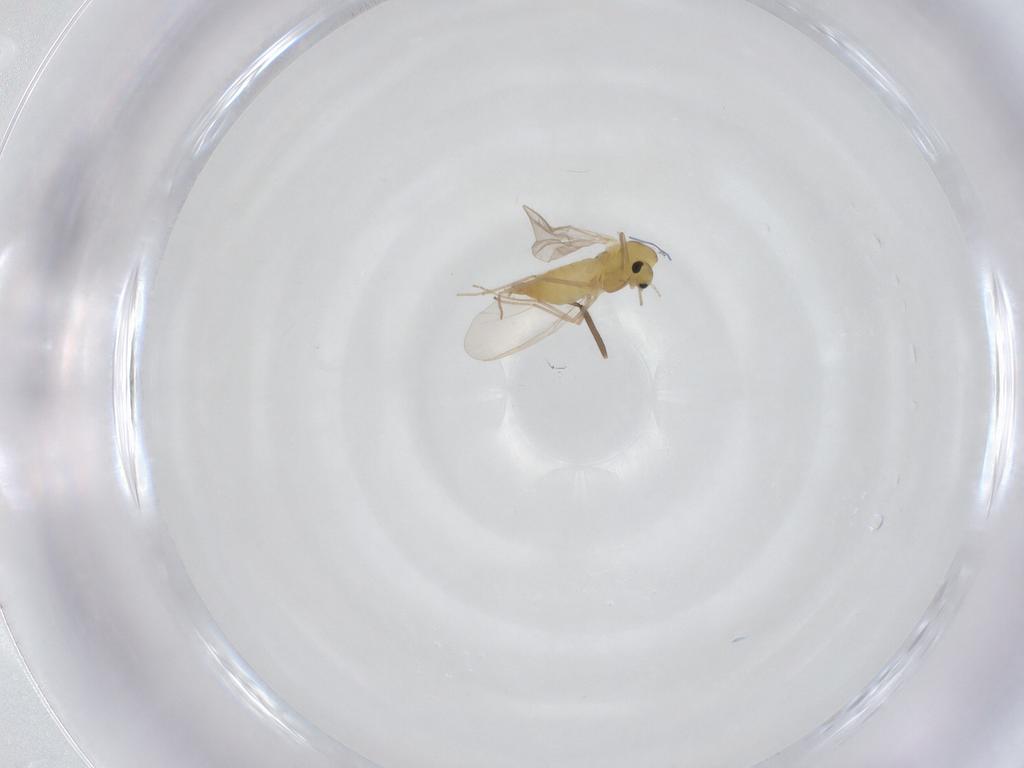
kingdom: Animalia
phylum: Arthropoda
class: Insecta
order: Diptera
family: Chironomidae
